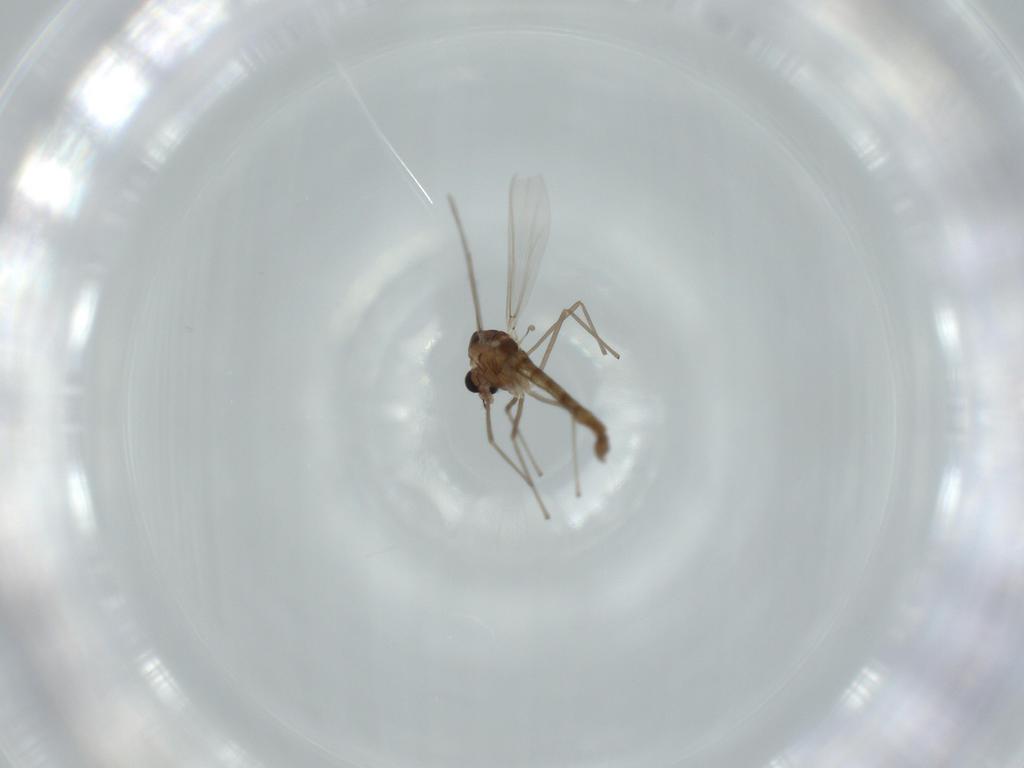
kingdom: Animalia
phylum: Arthropoda
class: Insecta
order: Diptera
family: Chironomidae
